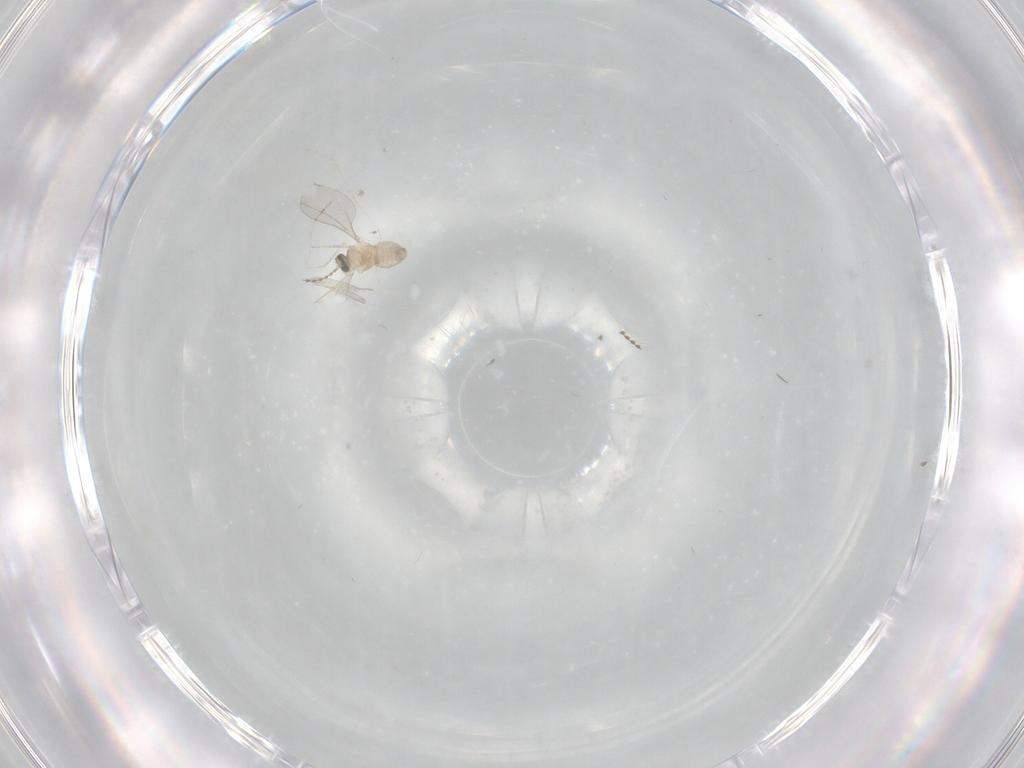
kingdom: Animalia
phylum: Arthropoda
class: Insecta
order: Diptera
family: Cecidomyiidae
